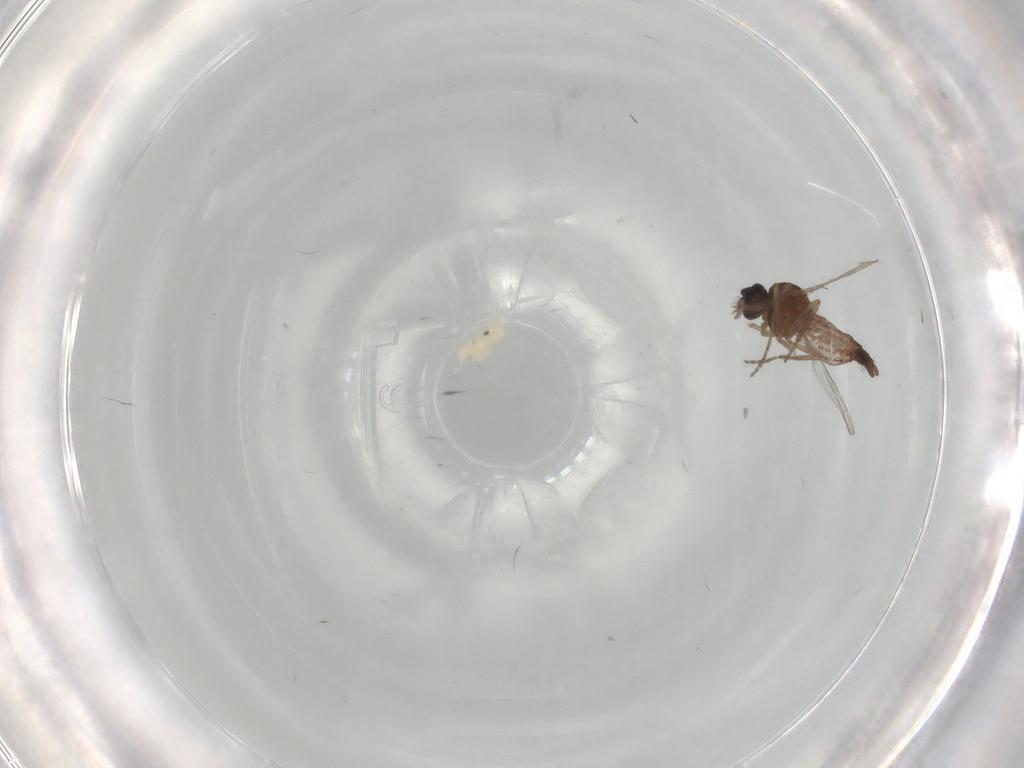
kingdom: Animalia
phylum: Arthropoda
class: Insecta
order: Diptera
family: Ceratopogonidae
